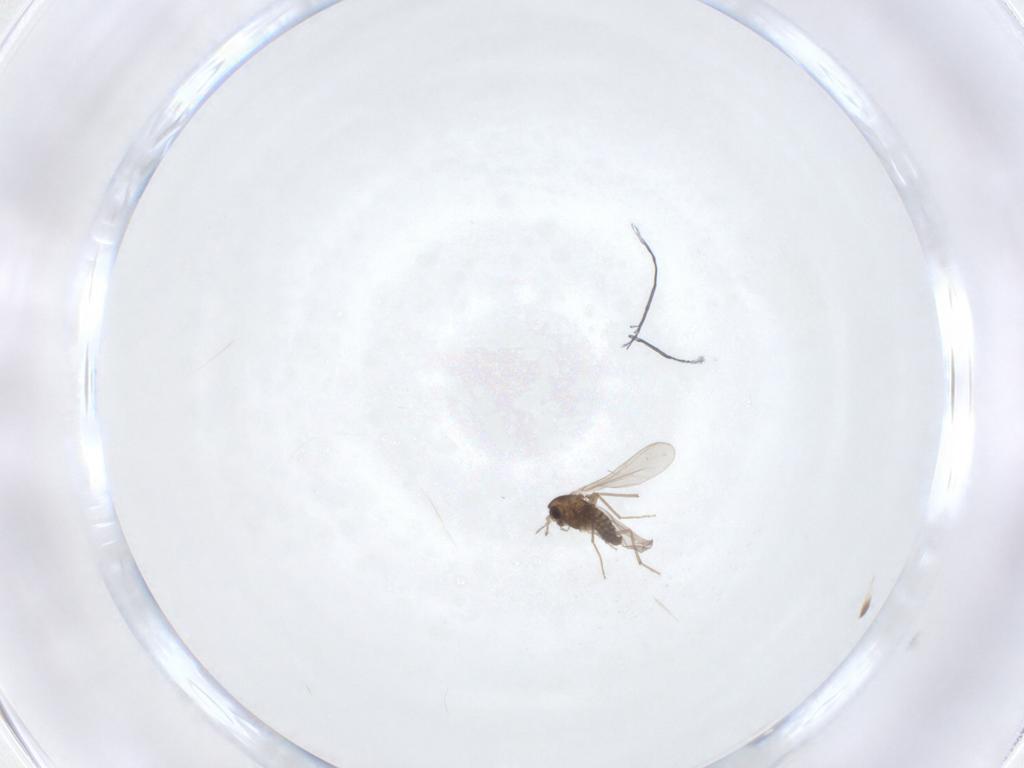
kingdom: Animalia
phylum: Arthropoda
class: Insecta
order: Diptera
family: Chironomidae
